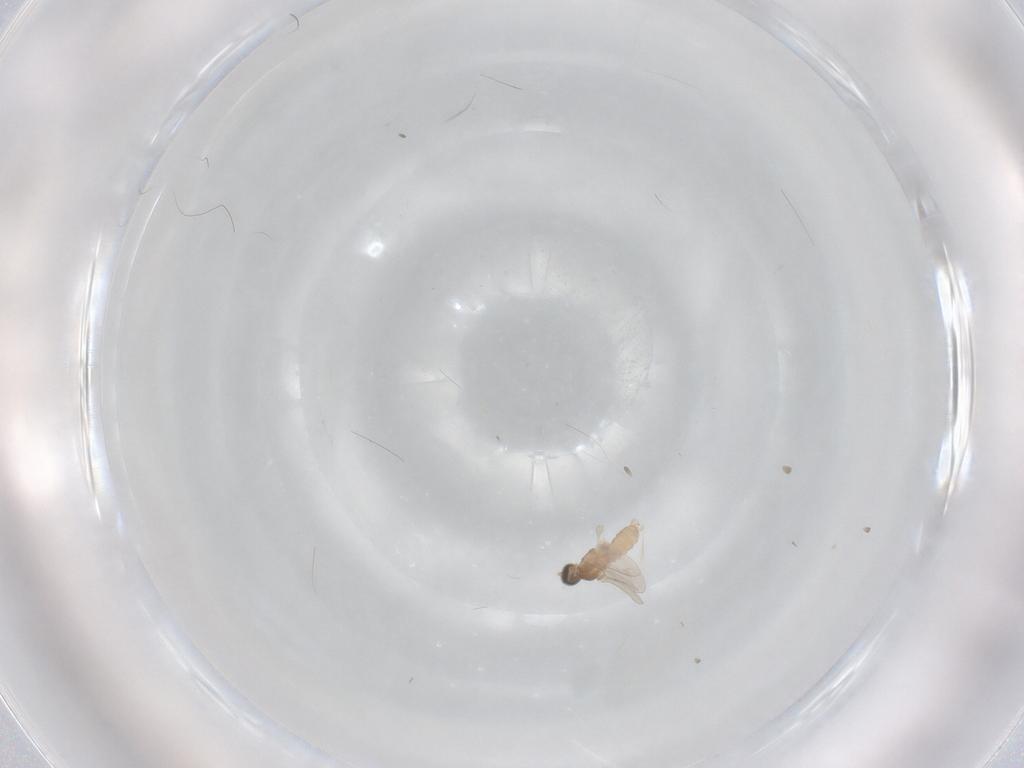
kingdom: Animalia
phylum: Arthropoda
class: Insecta
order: Diptera
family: Cecidomyiidae
